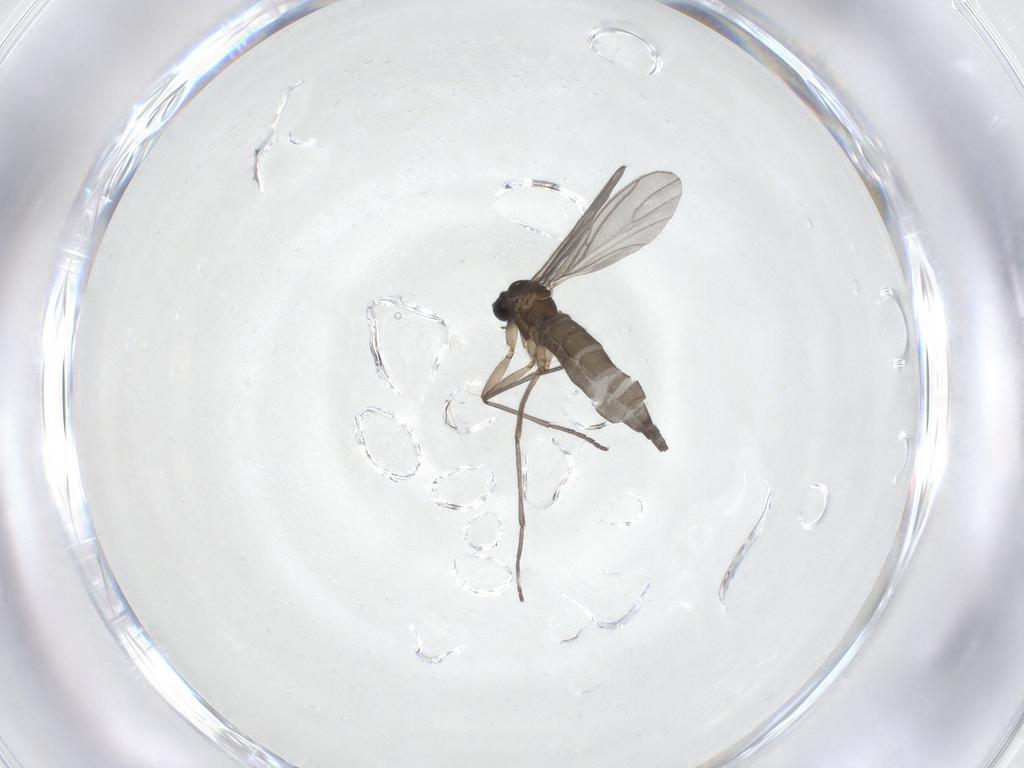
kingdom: Animalia
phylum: Arthropoda
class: Insecta
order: Diptera
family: Sciaridae
